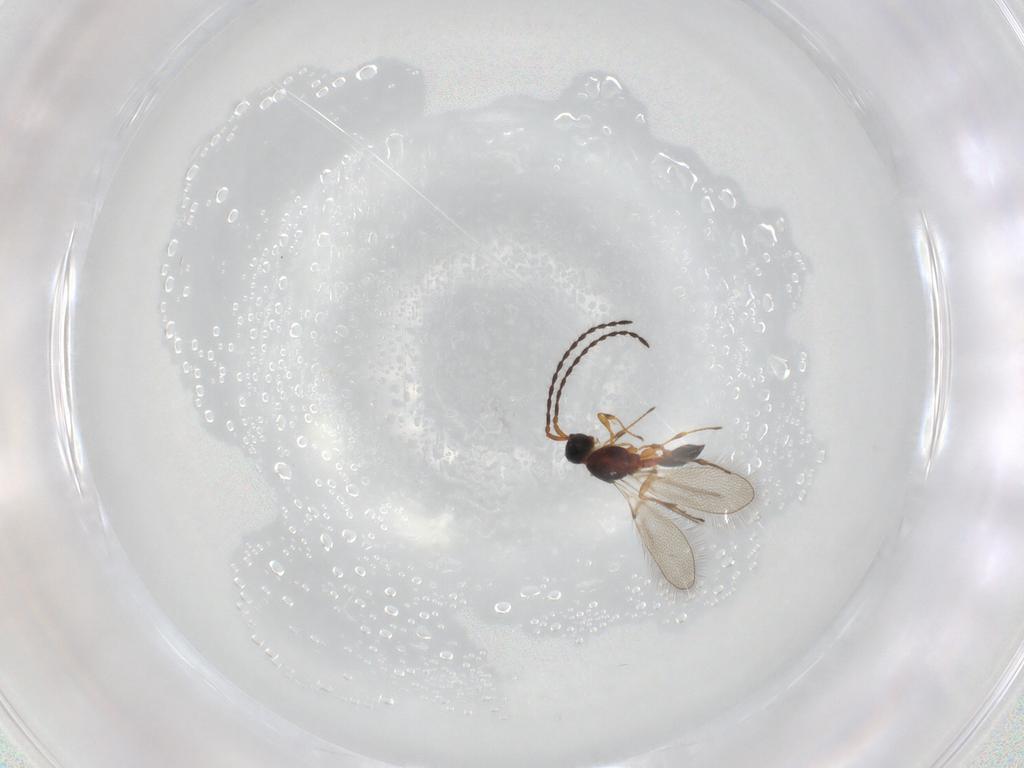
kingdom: Animalia
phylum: Arthropoda
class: Insecta
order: Hymenoptera
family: Diapriidae
